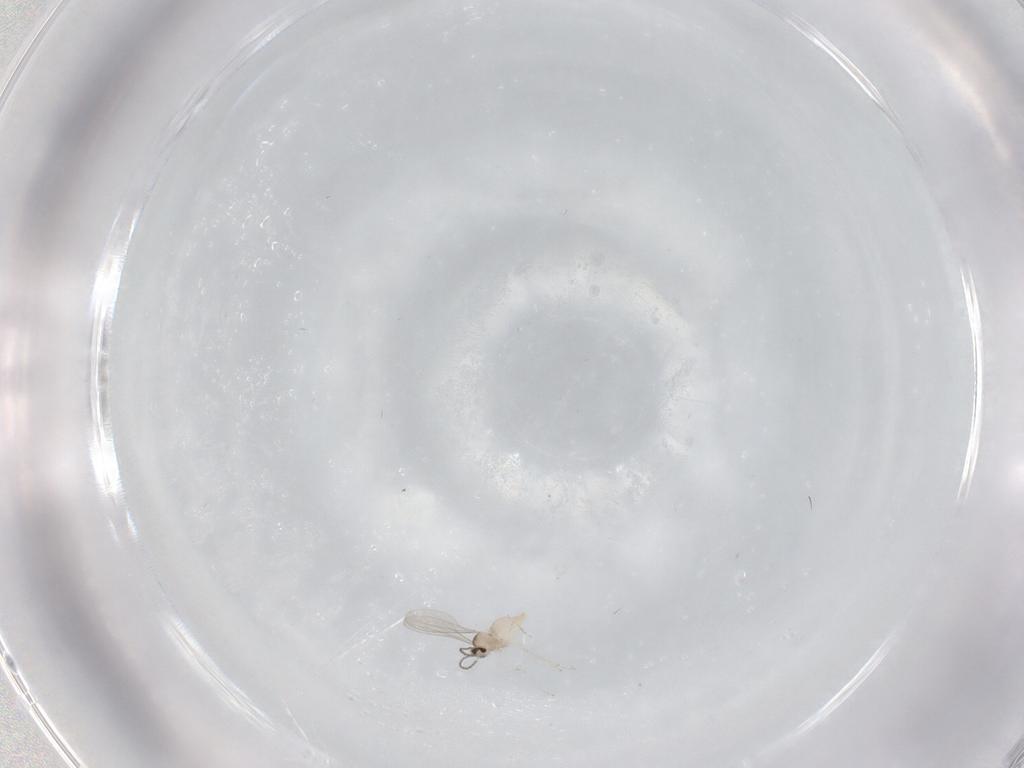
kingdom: Animalia
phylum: Arthropoda
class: Insecta
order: Diptera
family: Cecidomyiidae
